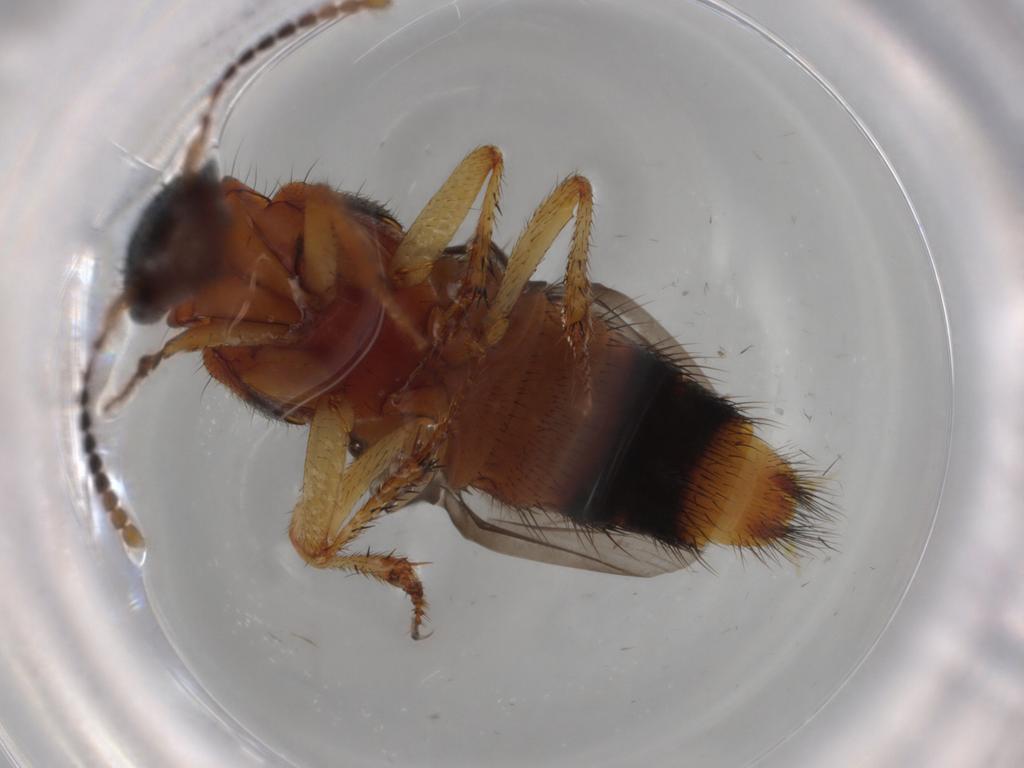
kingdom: Animalia
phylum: Arthropoda
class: Insecta
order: Coleoptera
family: Staphylinidae
